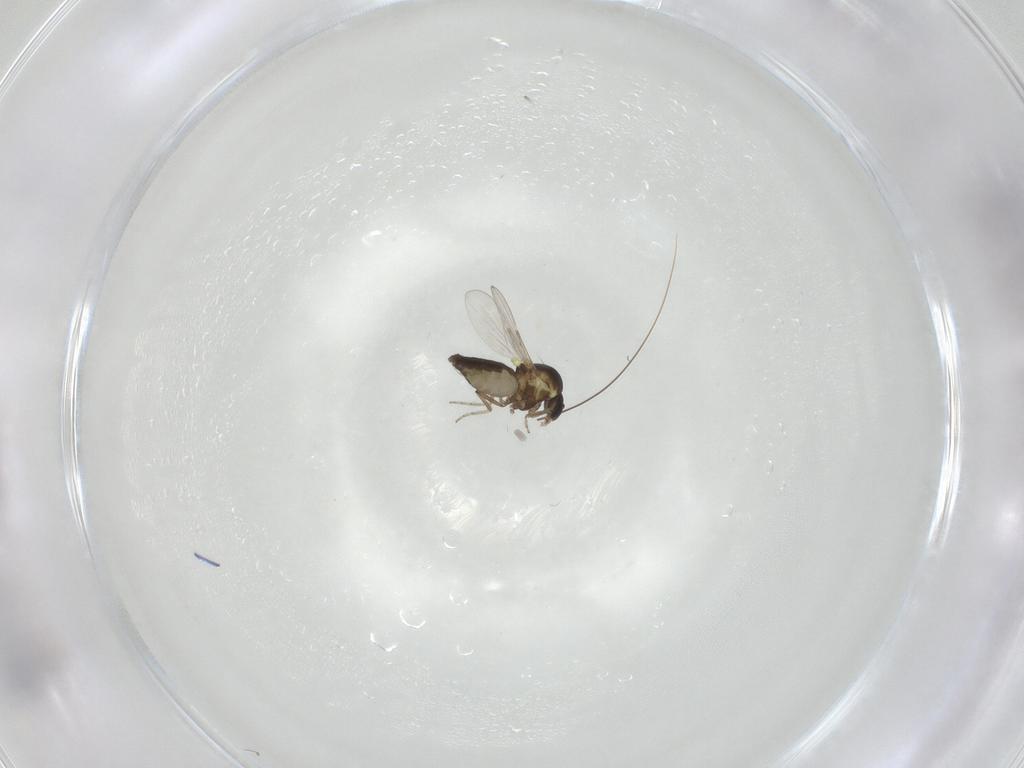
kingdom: Animalia
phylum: Arthropoda
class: Insecta
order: Diptera
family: Ceratopogonidae
